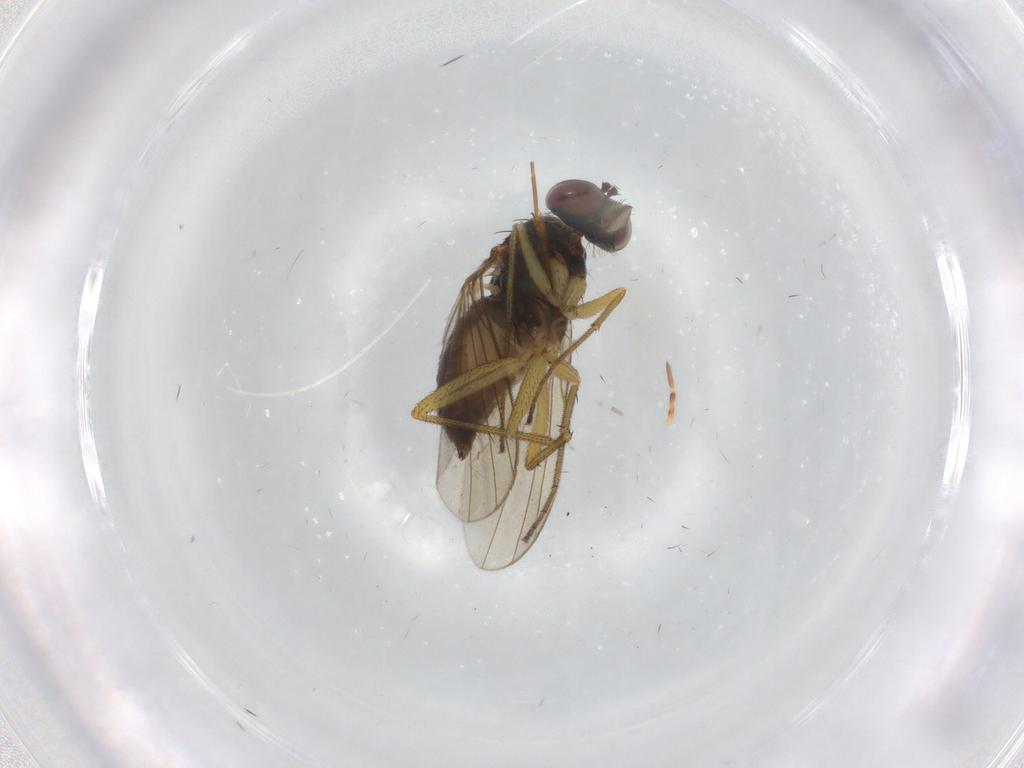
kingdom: Animalia
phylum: Arthropoda
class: Insecta
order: Diptera
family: Dolichopodidae
